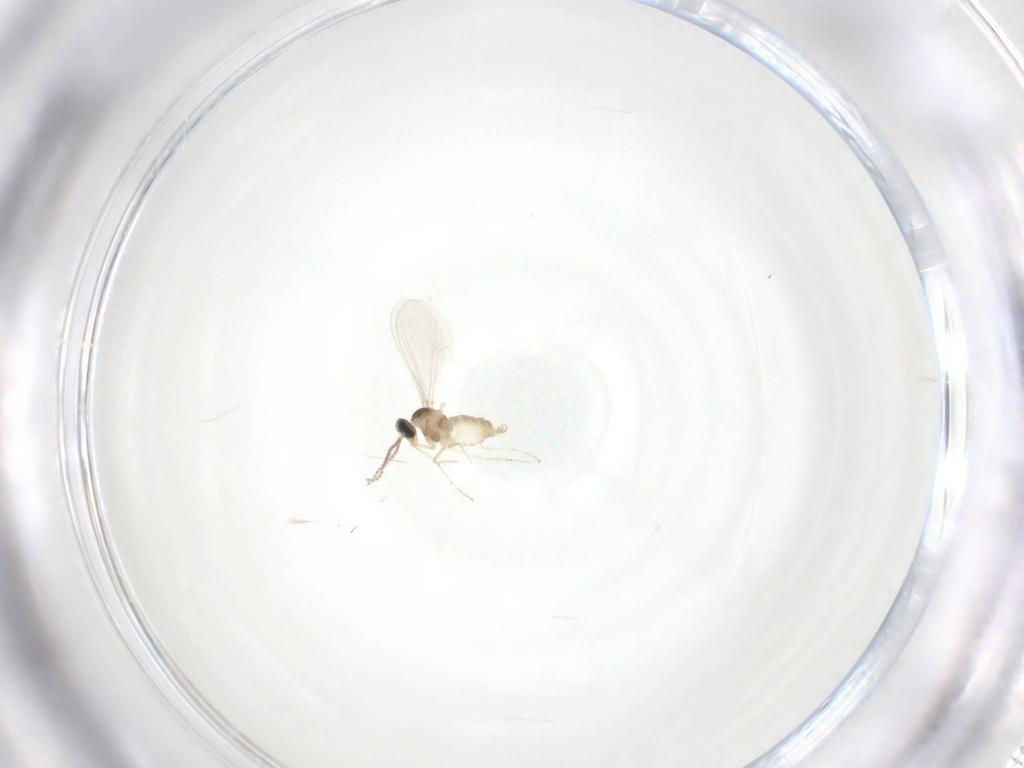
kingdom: Animalia
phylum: Arthropoda
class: Insecta
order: Diptera
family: Cecidomyiidae
